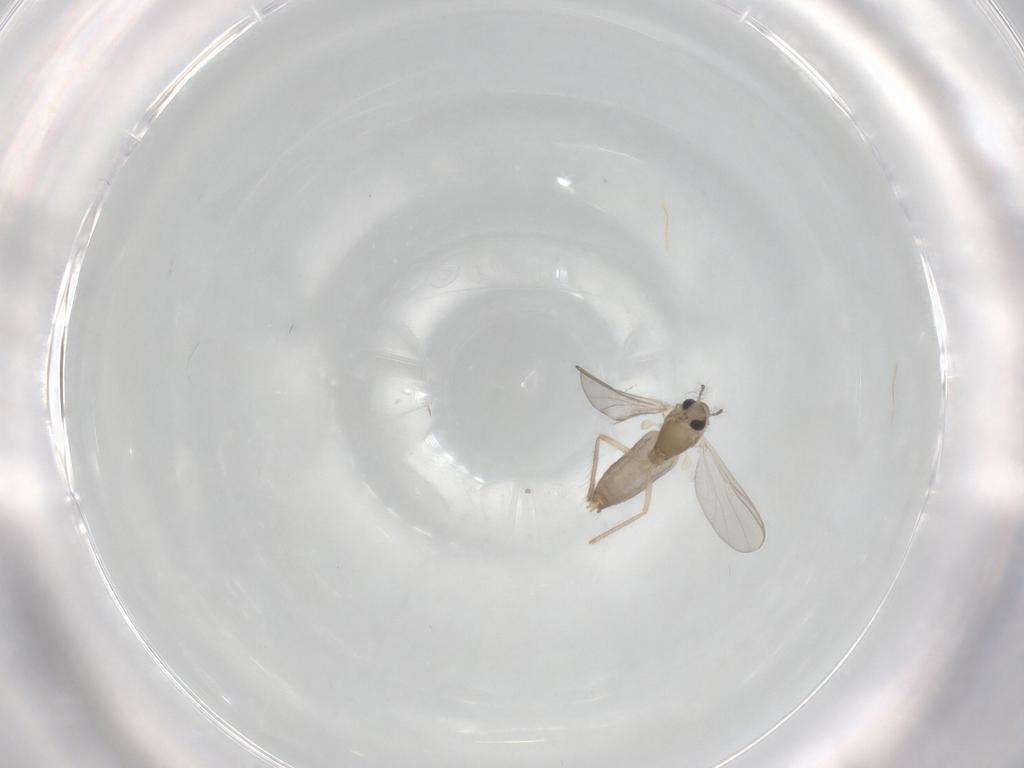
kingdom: Animalia
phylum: Arthropoda
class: Insecta
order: Diptera
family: Chironomidae
